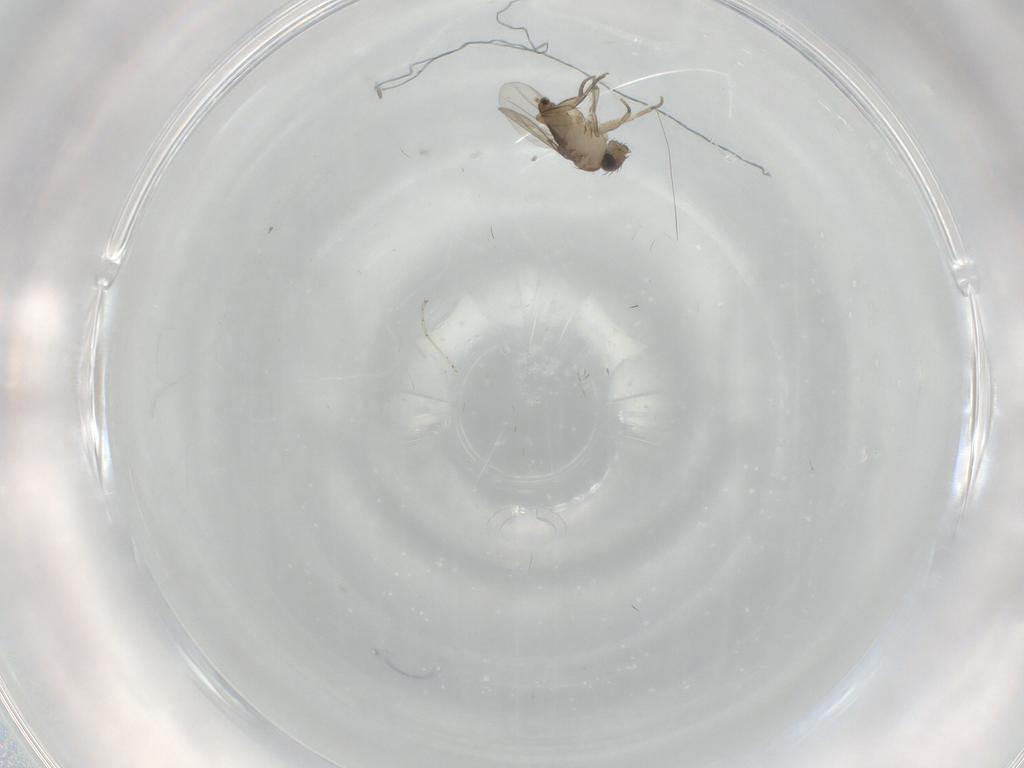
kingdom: Animalia
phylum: Arthropoda
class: Insecta
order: Diptera
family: Phoridae
